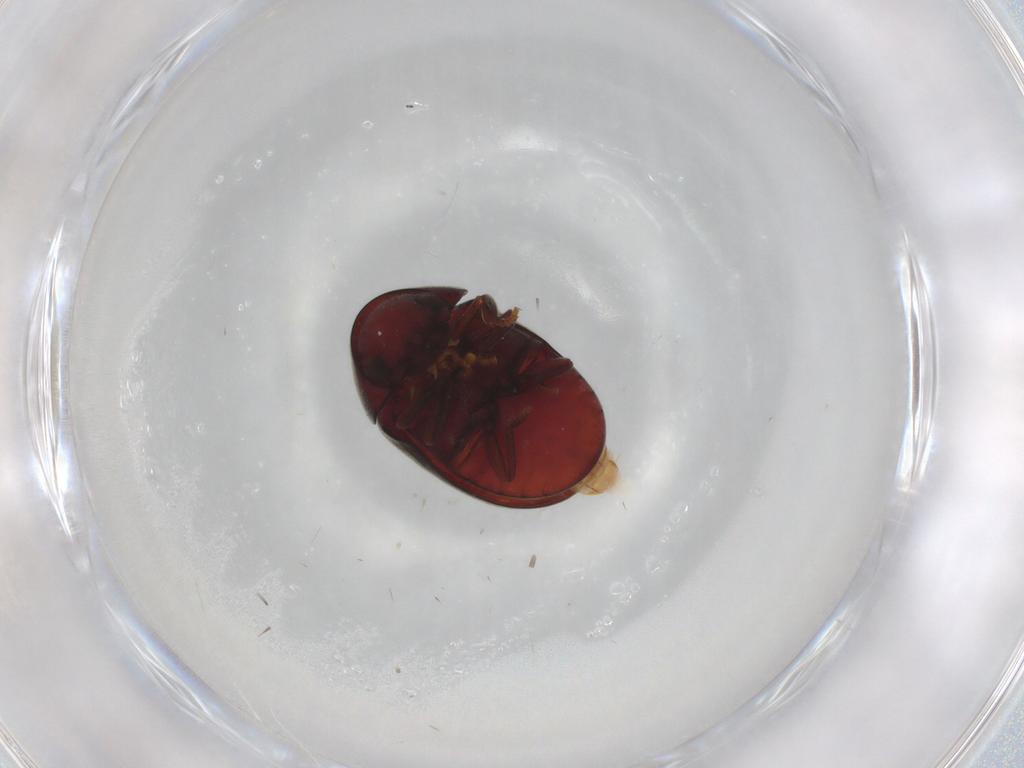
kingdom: Animalia
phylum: Arthropoda
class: Insecta
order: Coleoptera
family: Ptinidae
